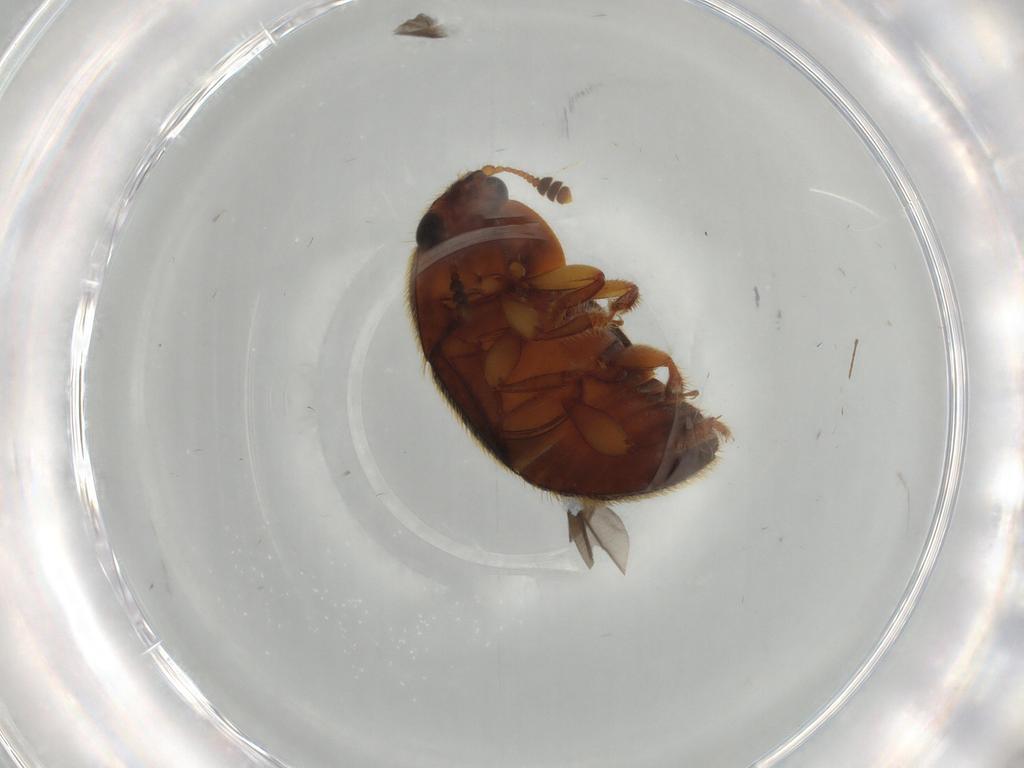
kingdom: Animalia
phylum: Arthropoda
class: Insecta
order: Coleoptera
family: Nitidulidae
